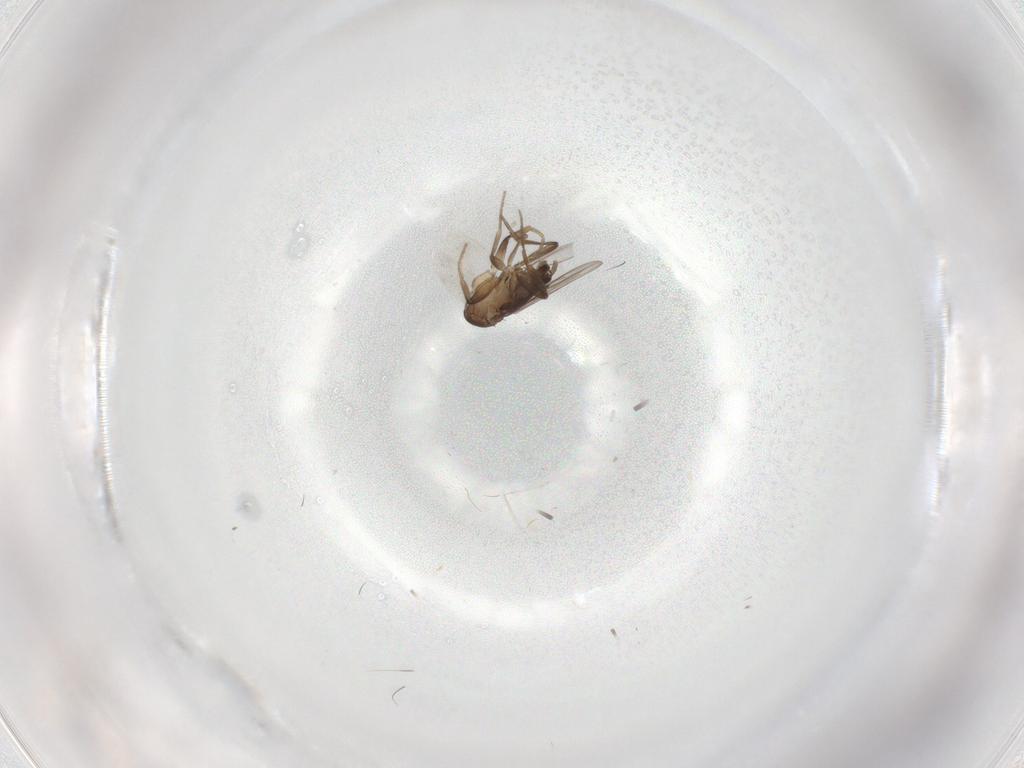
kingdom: Animalia
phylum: Arthropoda
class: Insecta
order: Diptera
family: Phoridae
